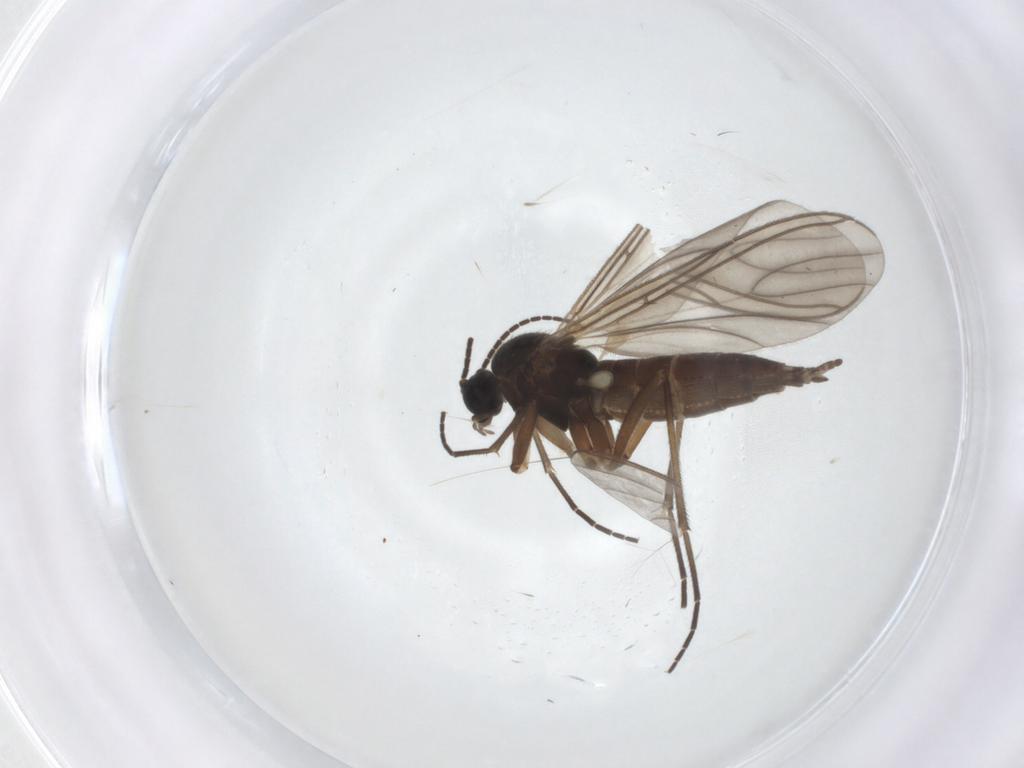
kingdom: Animalia
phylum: Arthropoda
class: Insecta
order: Diptera
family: Sciaridae
